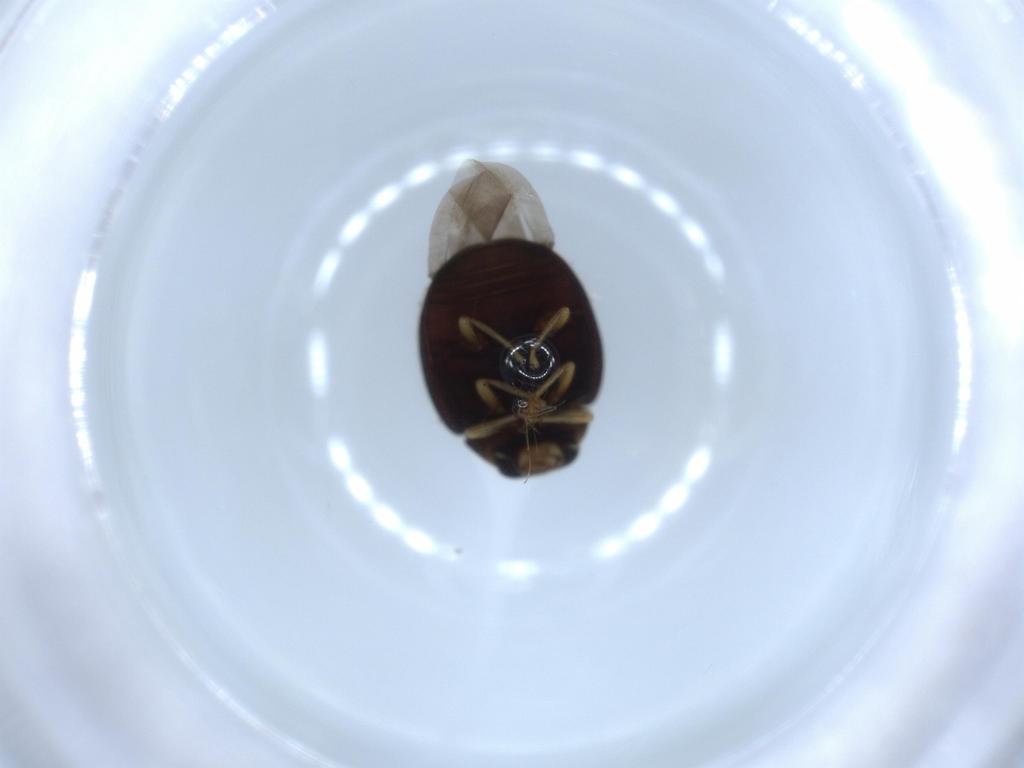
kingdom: Animalia
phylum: Arthropoda
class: Insecta
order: Coleoptera
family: Coccinellidae
